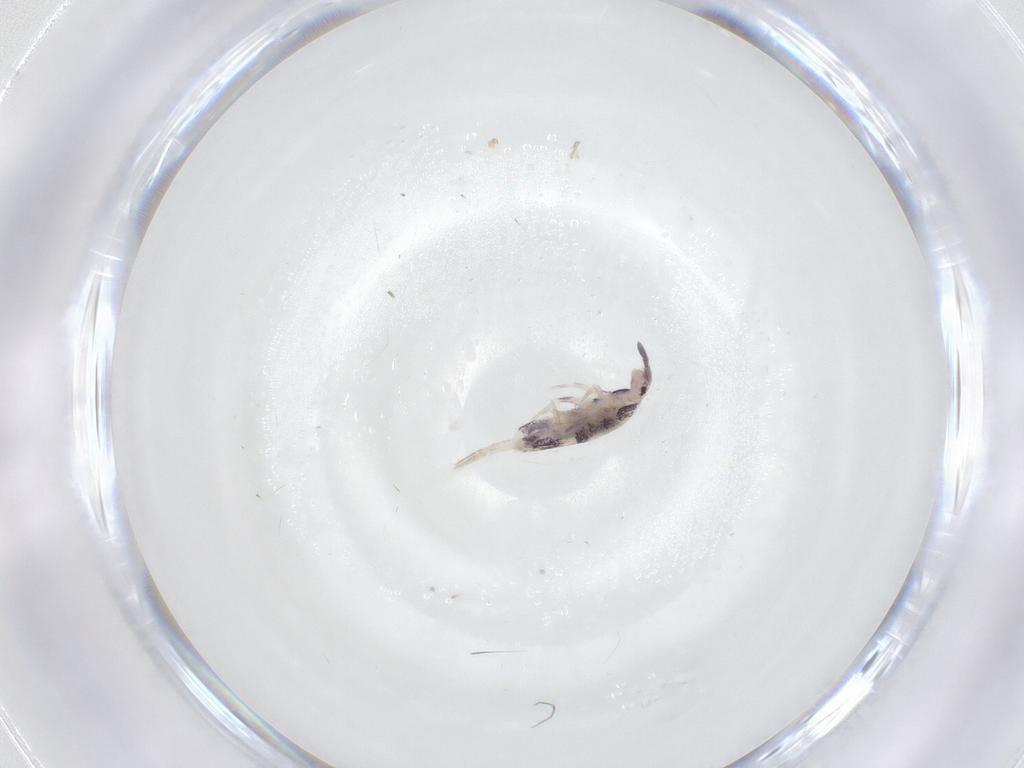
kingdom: Animalia
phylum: Arthropoda
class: Collembola
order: Entomobryomorpha
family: Entomobryidae
